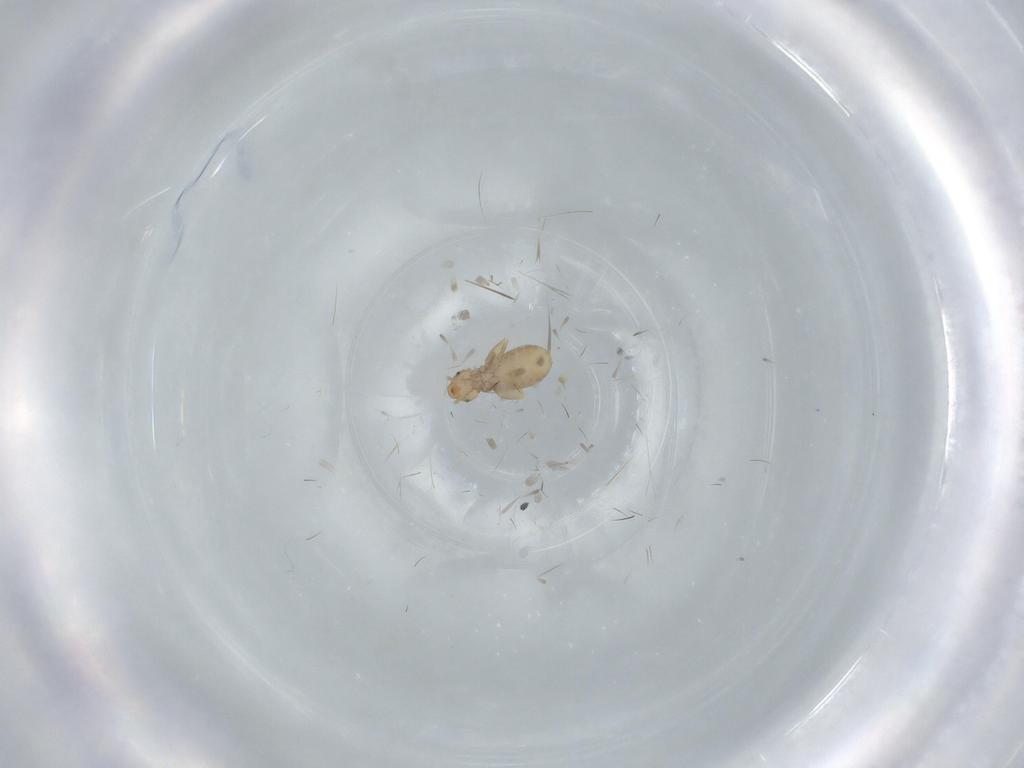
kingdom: Animalia
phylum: Arthropoda
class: Insecta
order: Psocodea
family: Liposcelididae
